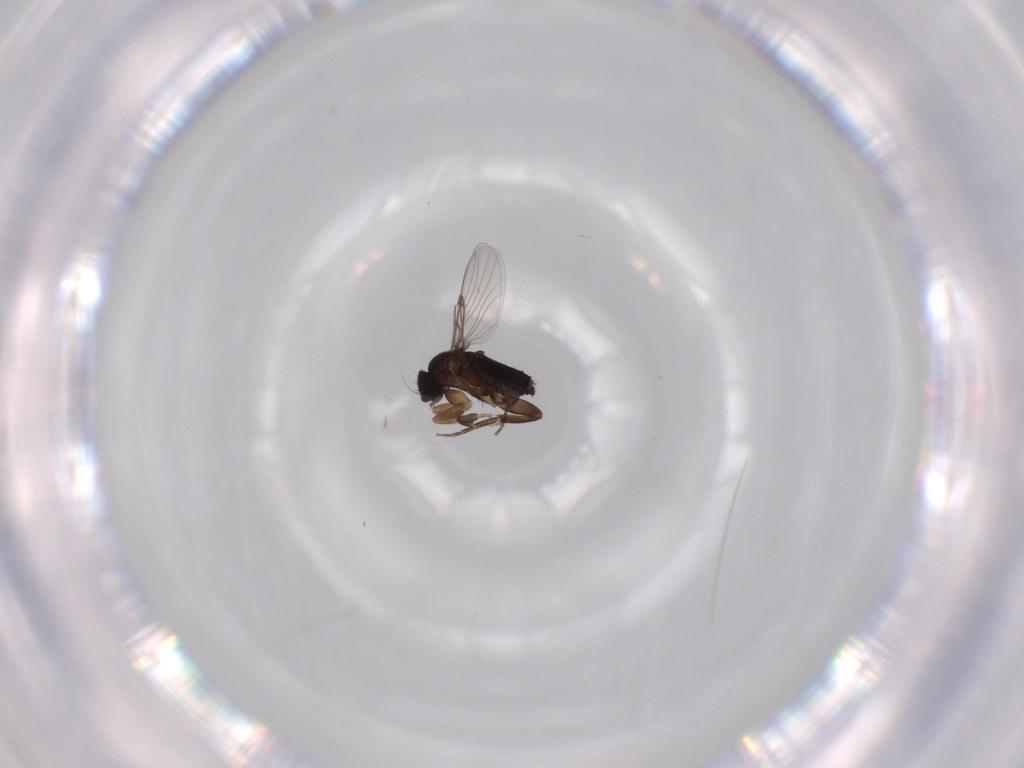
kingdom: Animalia
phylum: Arthropoda
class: Insecta
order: Diptera
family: Phoridae
